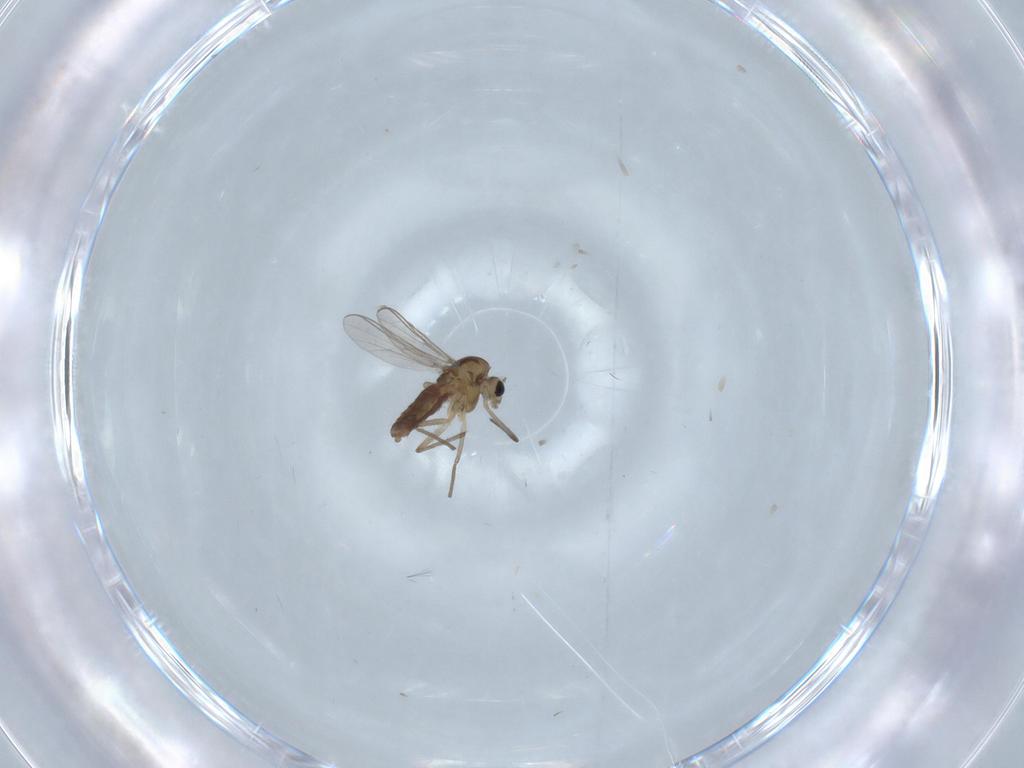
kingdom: Animalia
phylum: Arthropoda
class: Insecta
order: Diptera
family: Chironomidae
